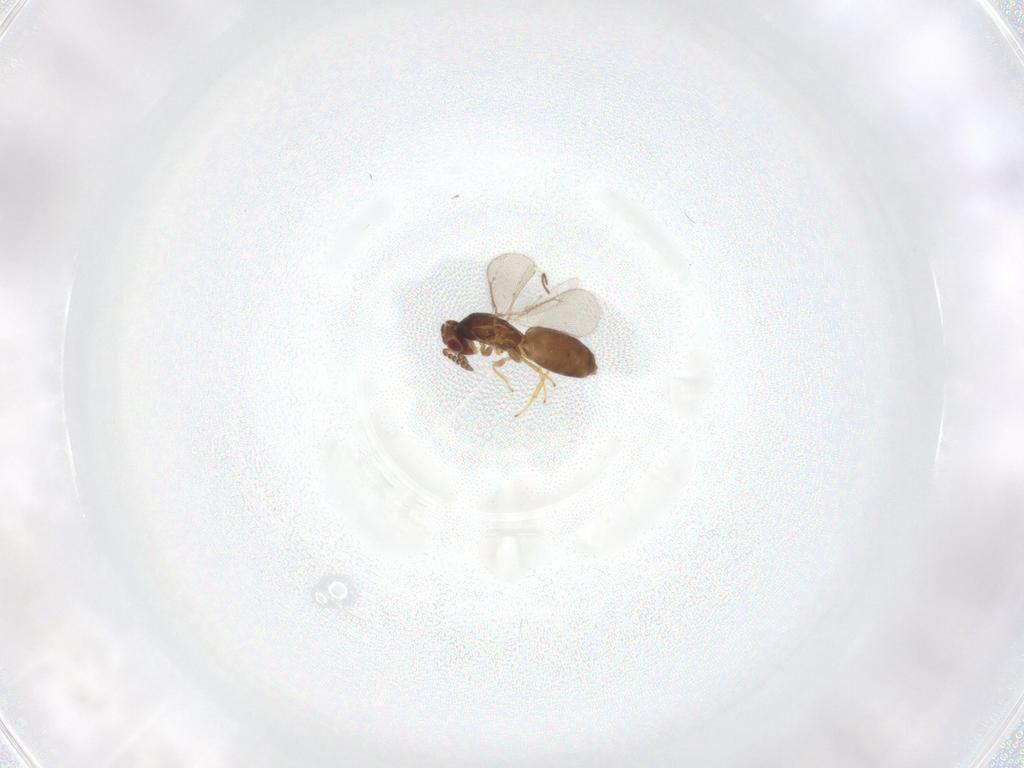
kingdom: Animalia
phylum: Arthropoda
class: Insecta
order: Hymenoptera
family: Eulophidae
